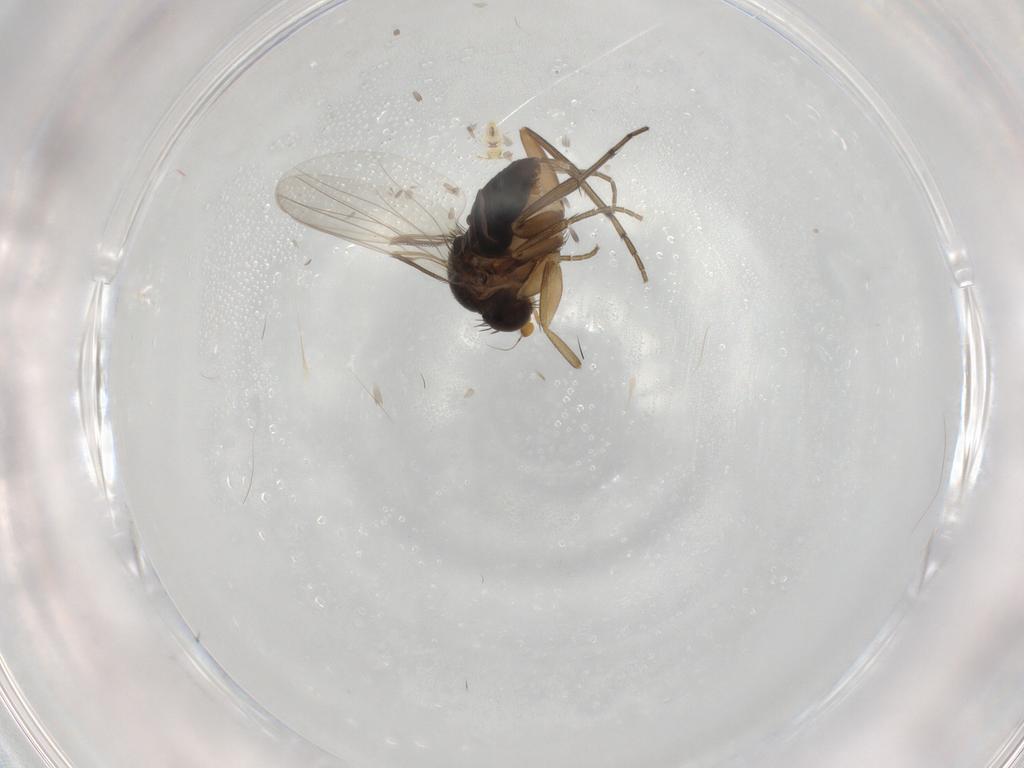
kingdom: Animalia
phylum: Arthropoda
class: Insecta
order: Diptera
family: Phoridae
